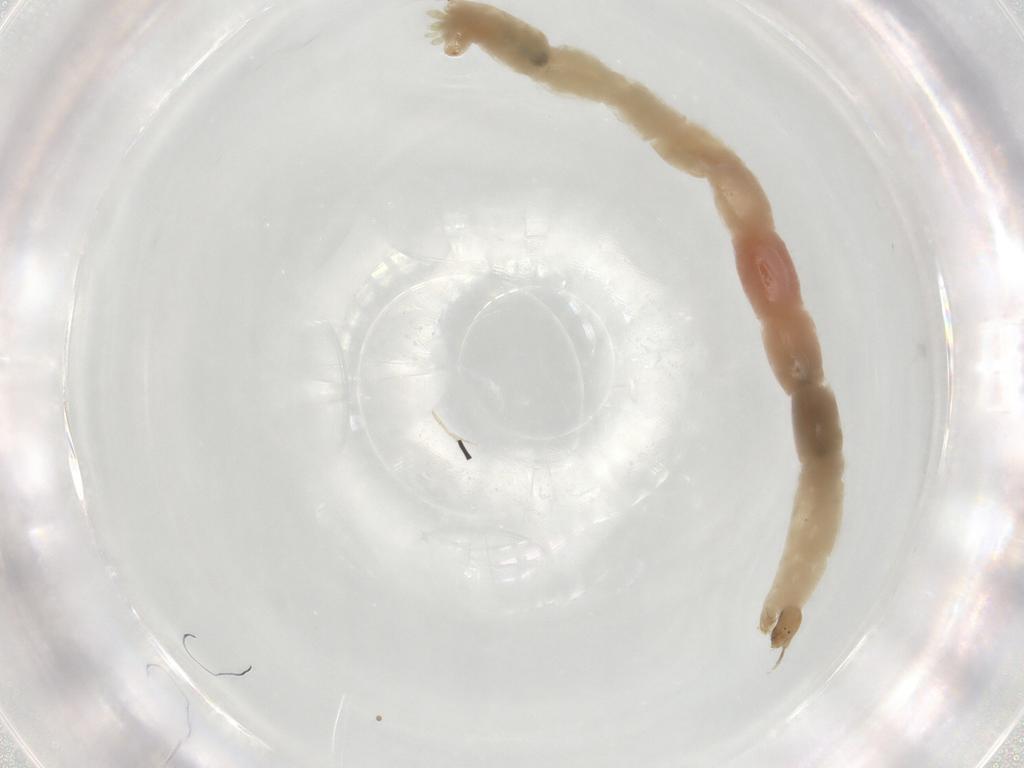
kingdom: Animalia
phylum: Arthropoda
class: Insecta
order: Diptera
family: Chironomidae
